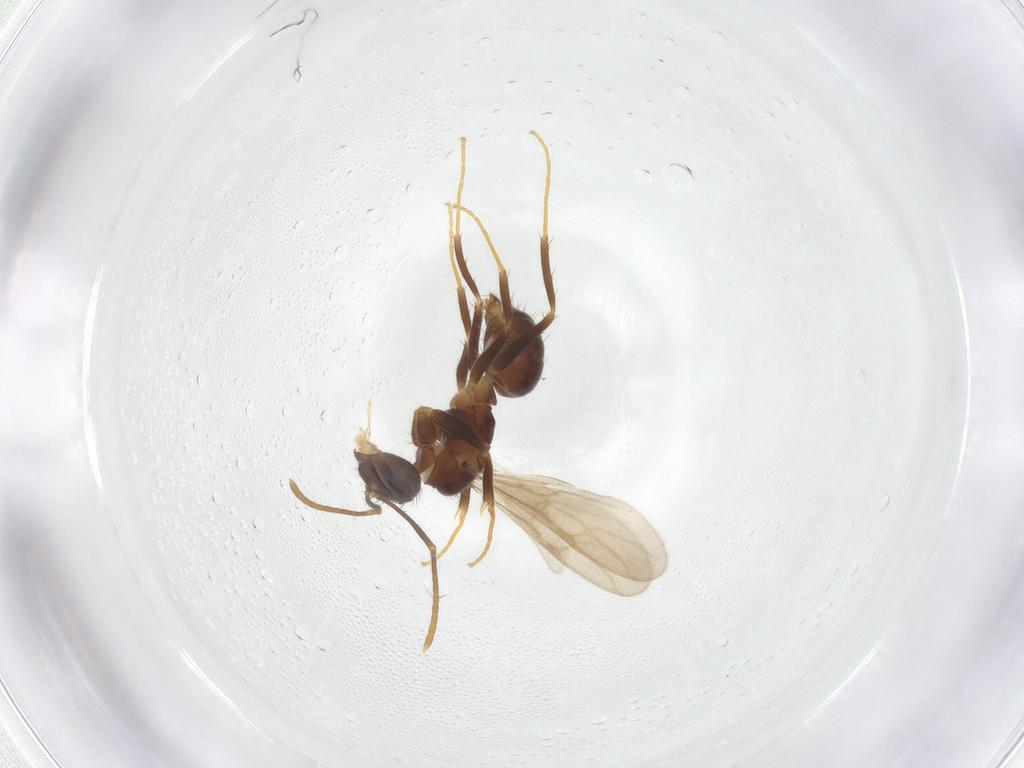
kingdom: Animalia
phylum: Arthropoda
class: Insecta
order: Hymenoptera
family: Formicidae
